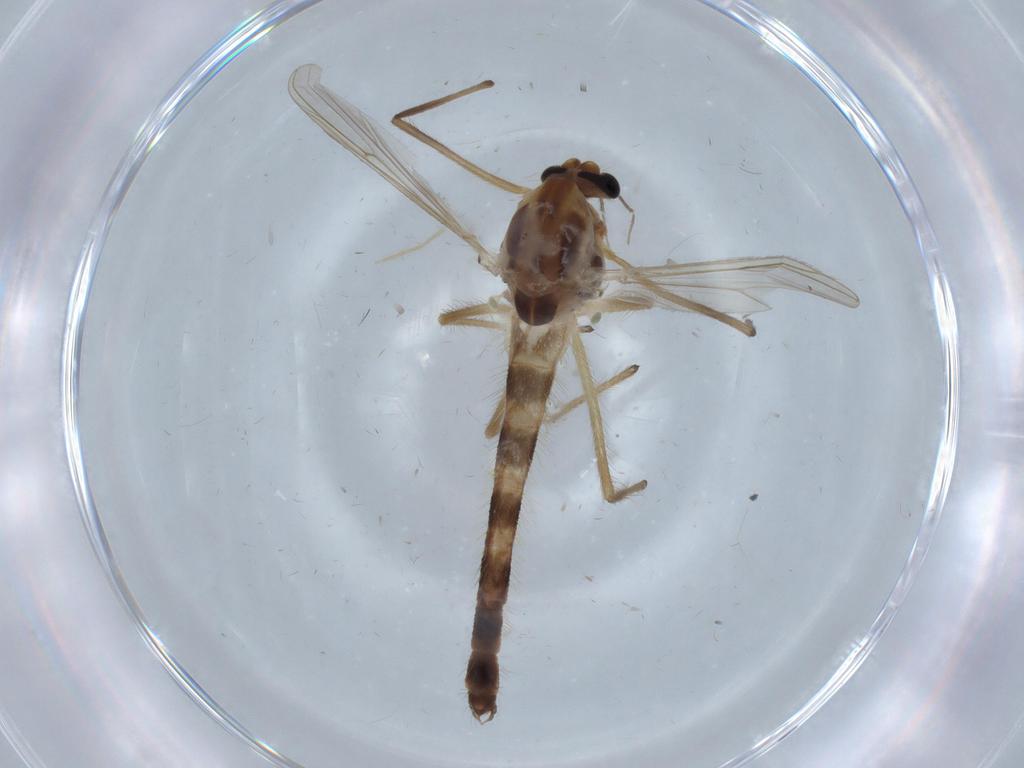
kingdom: Animalia
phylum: Arthropoda
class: Insecta
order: Diptera
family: Chironomidae
